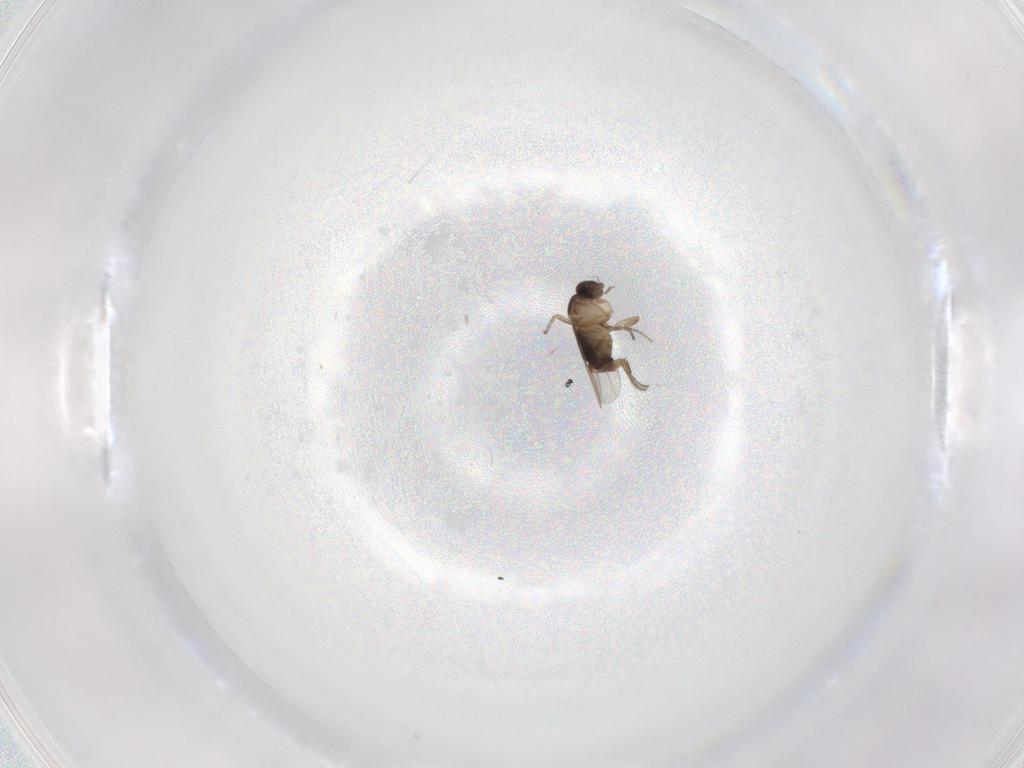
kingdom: Animalia
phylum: Arthropoda
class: Insecta
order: Diptera
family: Phoridae
